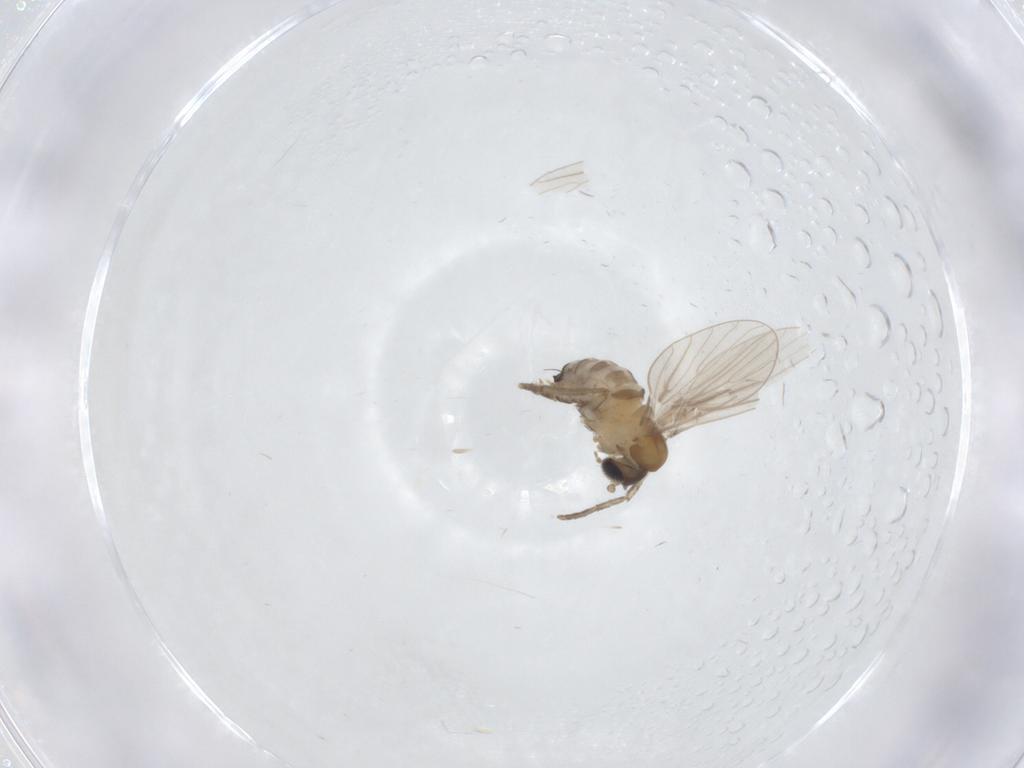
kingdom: Animalia
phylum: Arthropoda
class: Insecta
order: Diptera
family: Psychodidae
